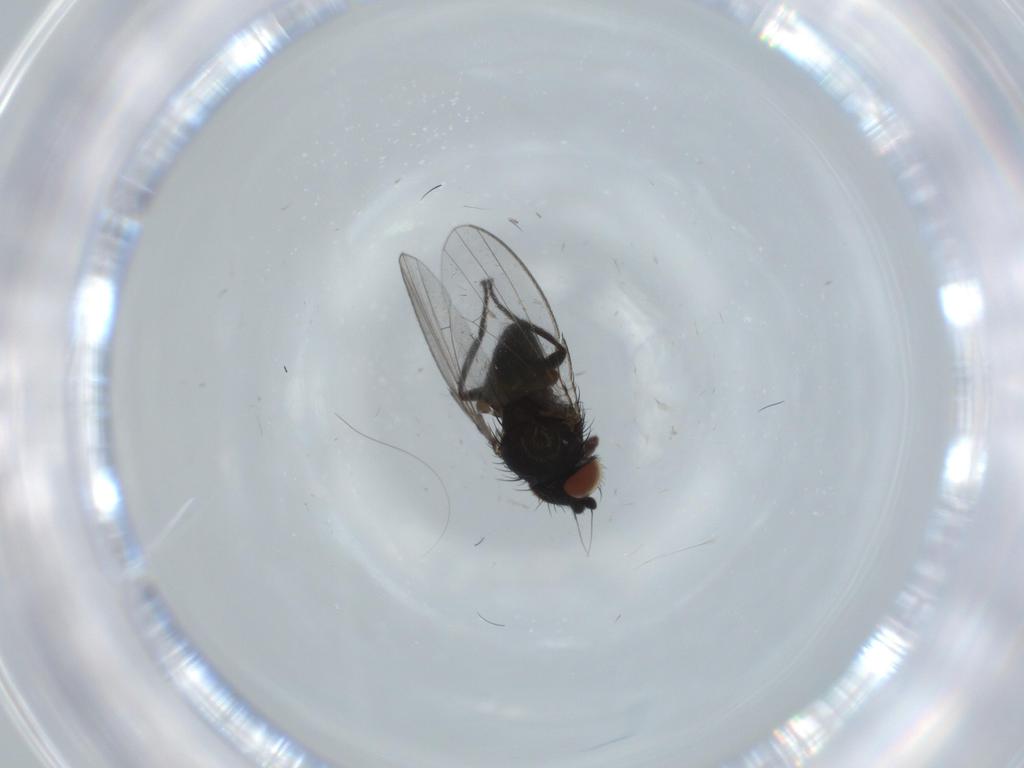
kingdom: Animalia
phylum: Arthropoda
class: Insecta
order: Diptera
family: Milichiidae
